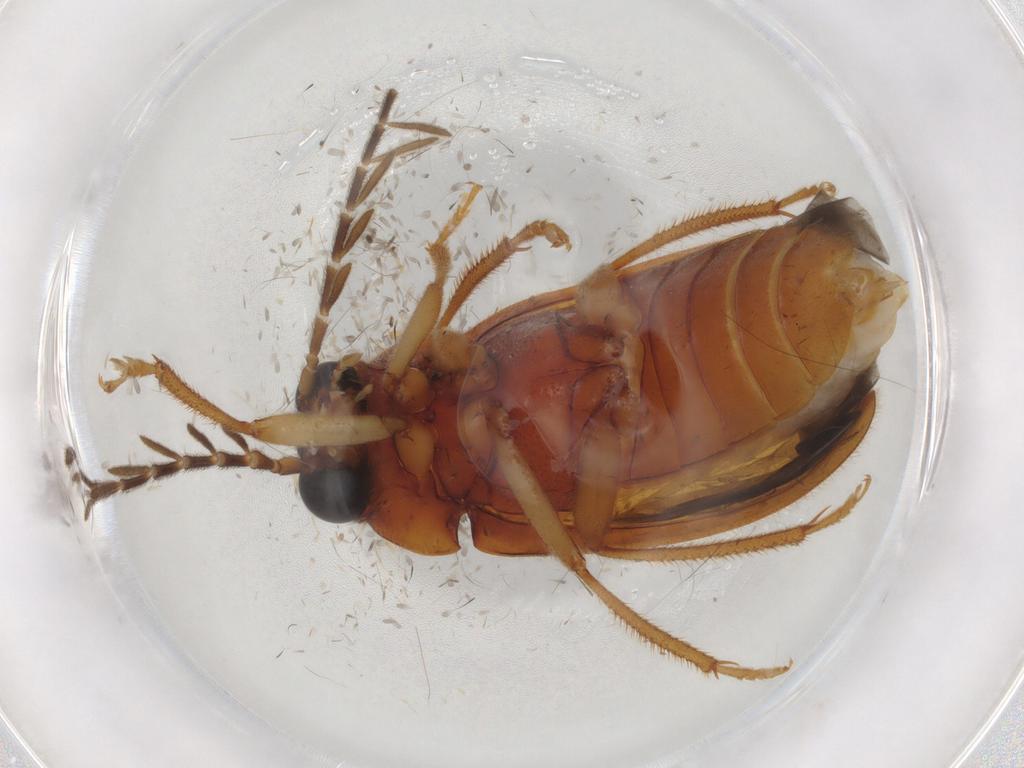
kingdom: Animalia
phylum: Arthropoda
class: Insecta
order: Coleoptera
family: Ptilodactylidae
